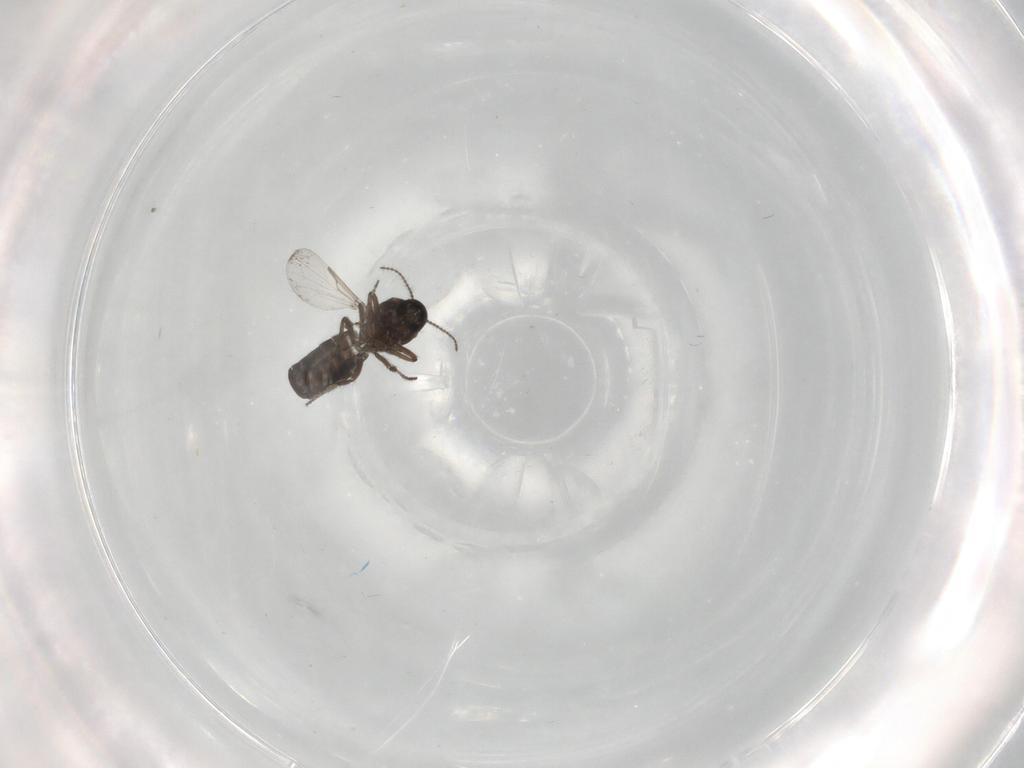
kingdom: Animalia
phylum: Arthropoda
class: Insecta
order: Diptera
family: Ceratopogonidae
